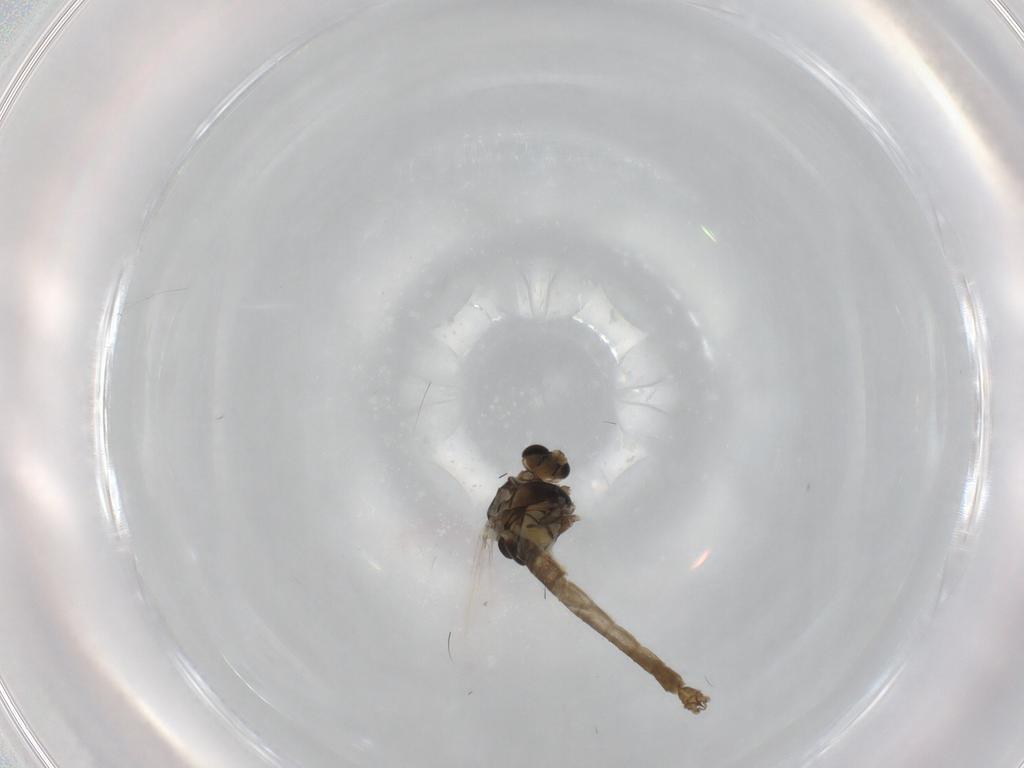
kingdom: Animalia
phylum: Arthropoda
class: Insecta
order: Diptera
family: Chironomidae
